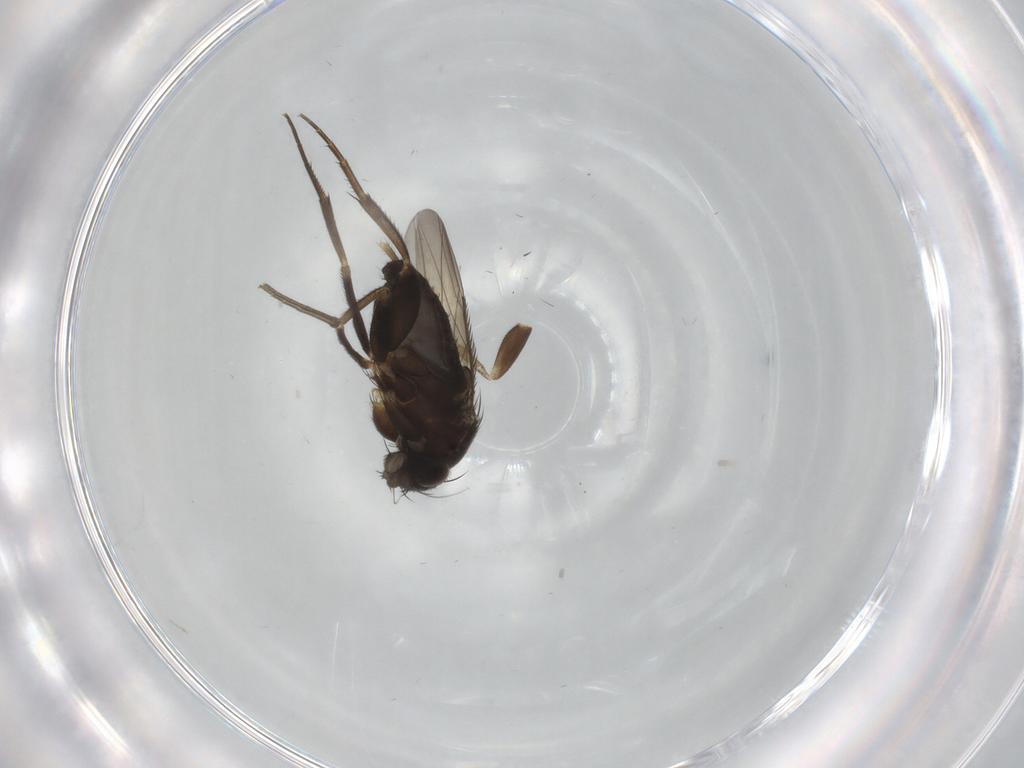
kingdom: Animalia
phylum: Arthropoda
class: Insecta
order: Diptera
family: Phoridae
